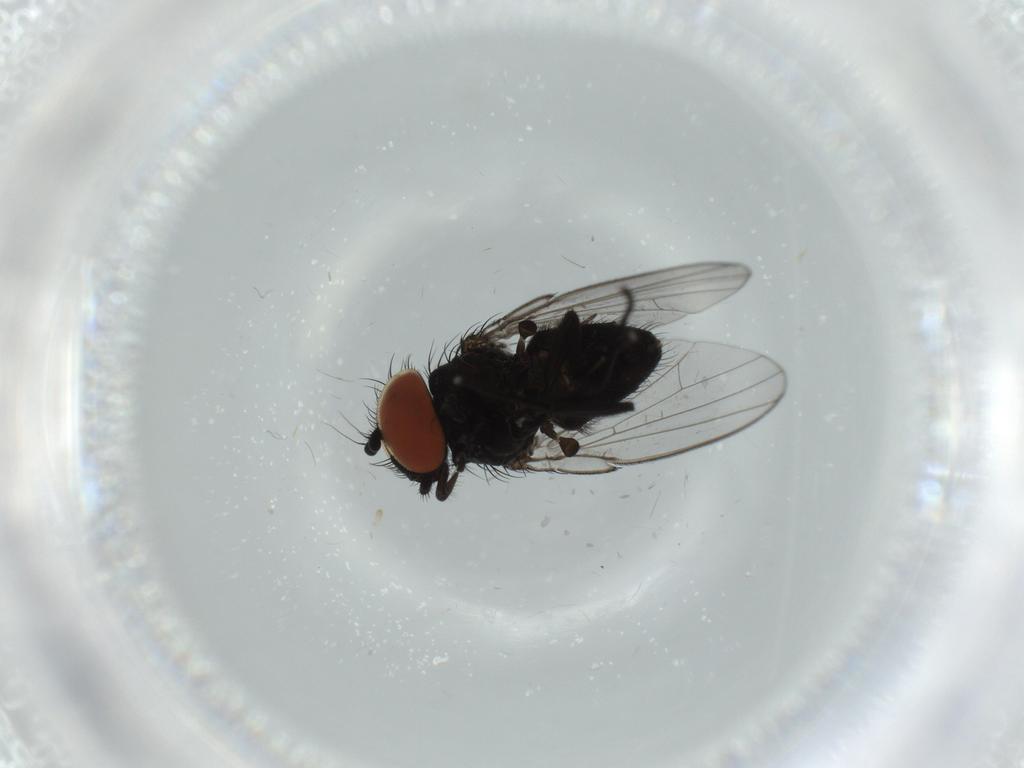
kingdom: Animalia
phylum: Arthropoda
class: Insecta
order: Diptera
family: Milichiidae
